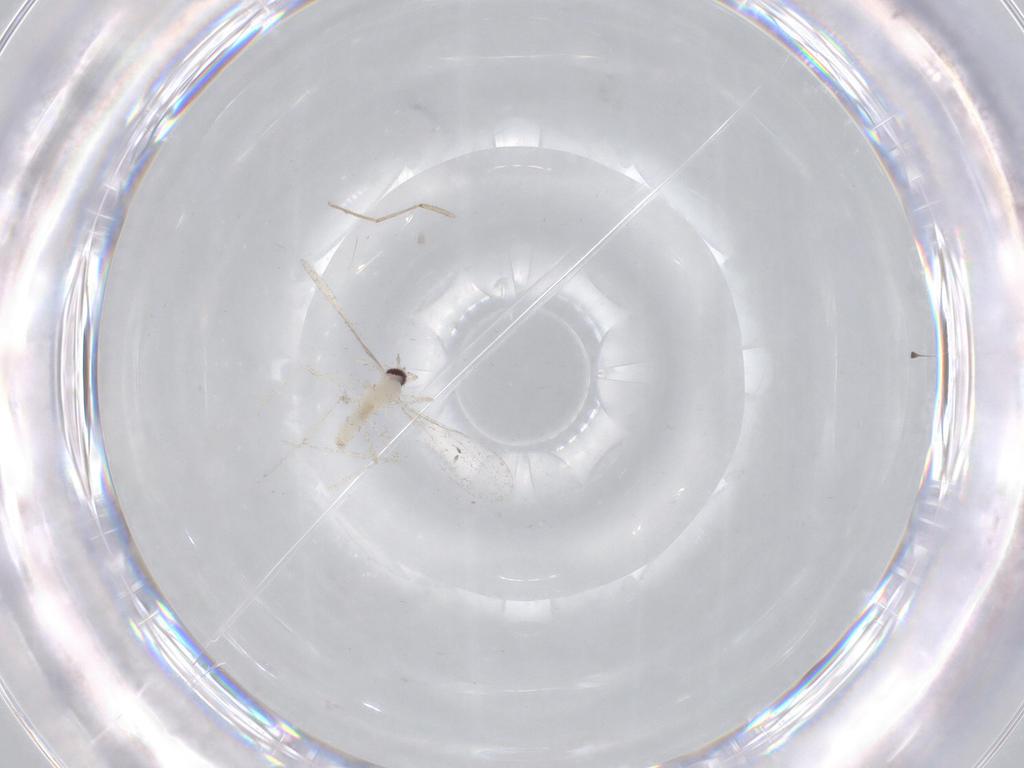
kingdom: Animalia
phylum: Arthropoda
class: Insecta
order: Diptera
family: Cecidomyiidae
